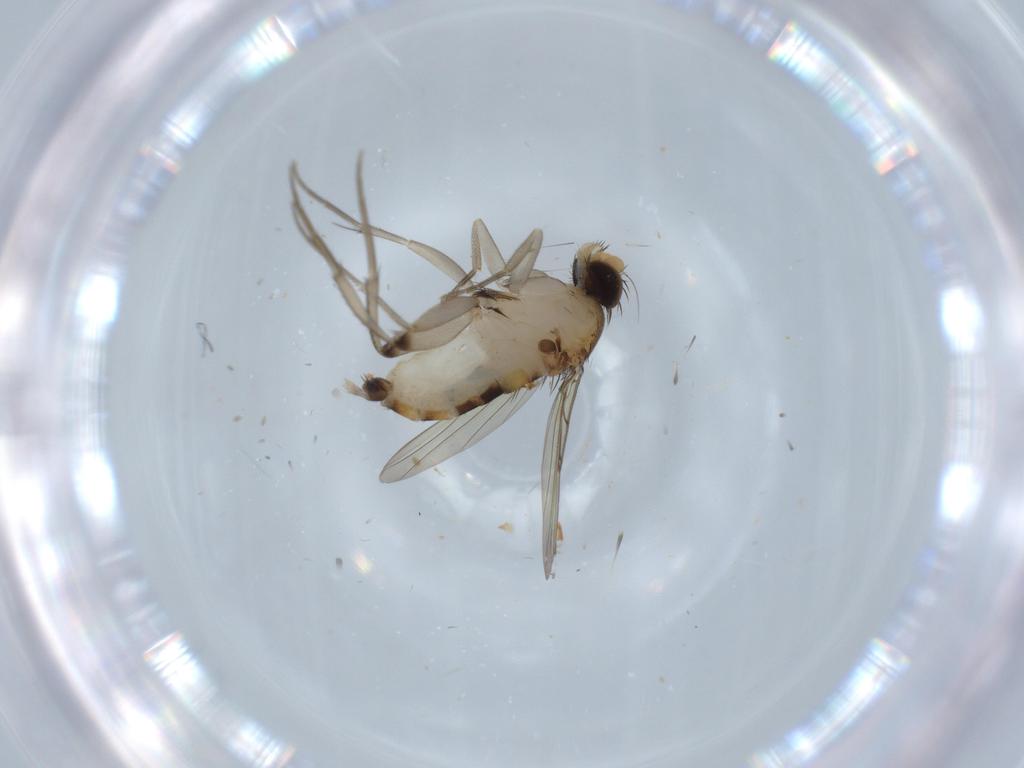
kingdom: Animalia
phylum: Arthropoda
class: Insecta
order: Diptera
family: Phoridae
